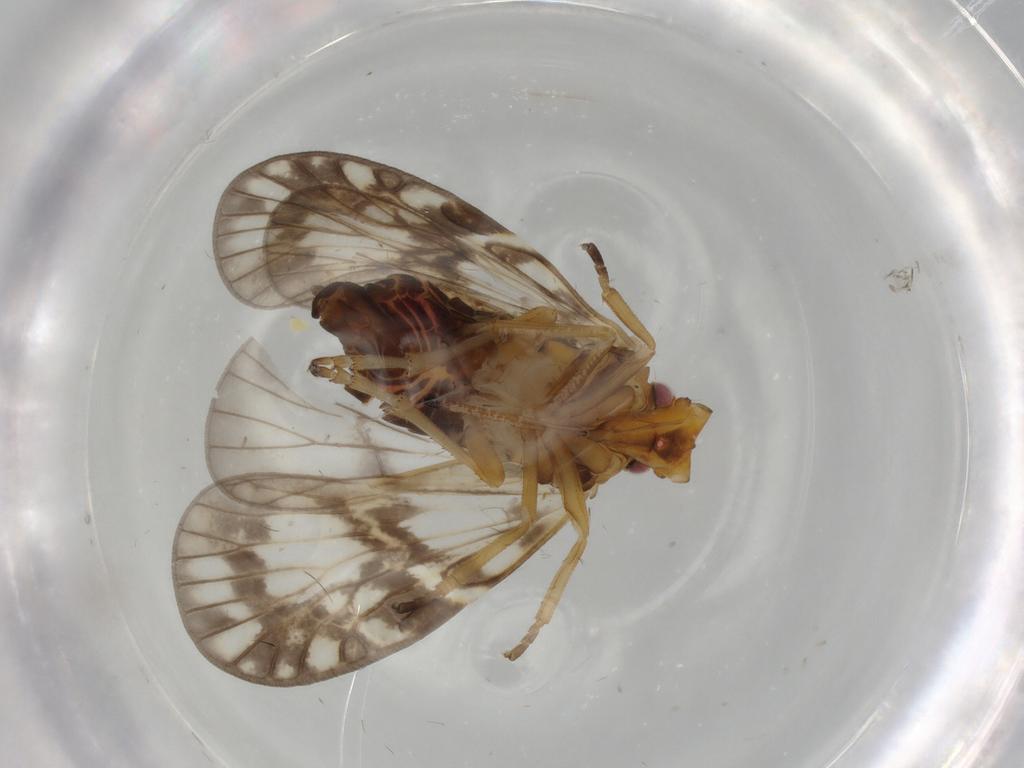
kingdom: Animalia
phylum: Arthropoda
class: Insecta
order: Hemiptera
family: Cixiidae
